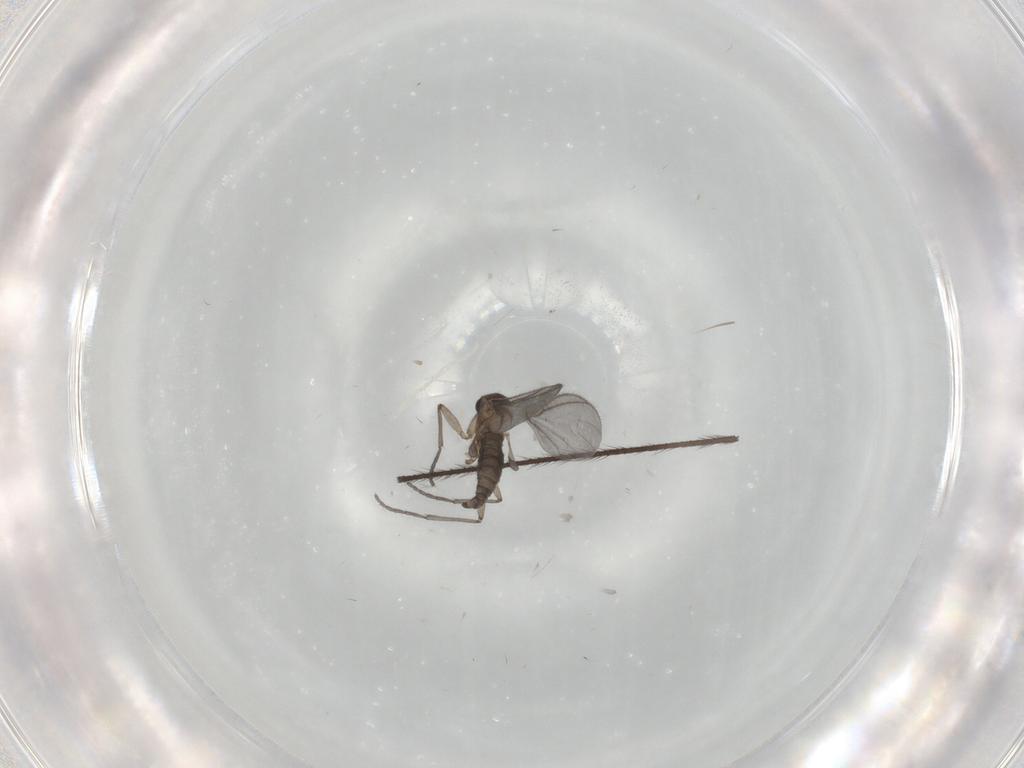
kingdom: Animalia
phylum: Arthropoda
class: Insecta
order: Diptera
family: Sciaridae
